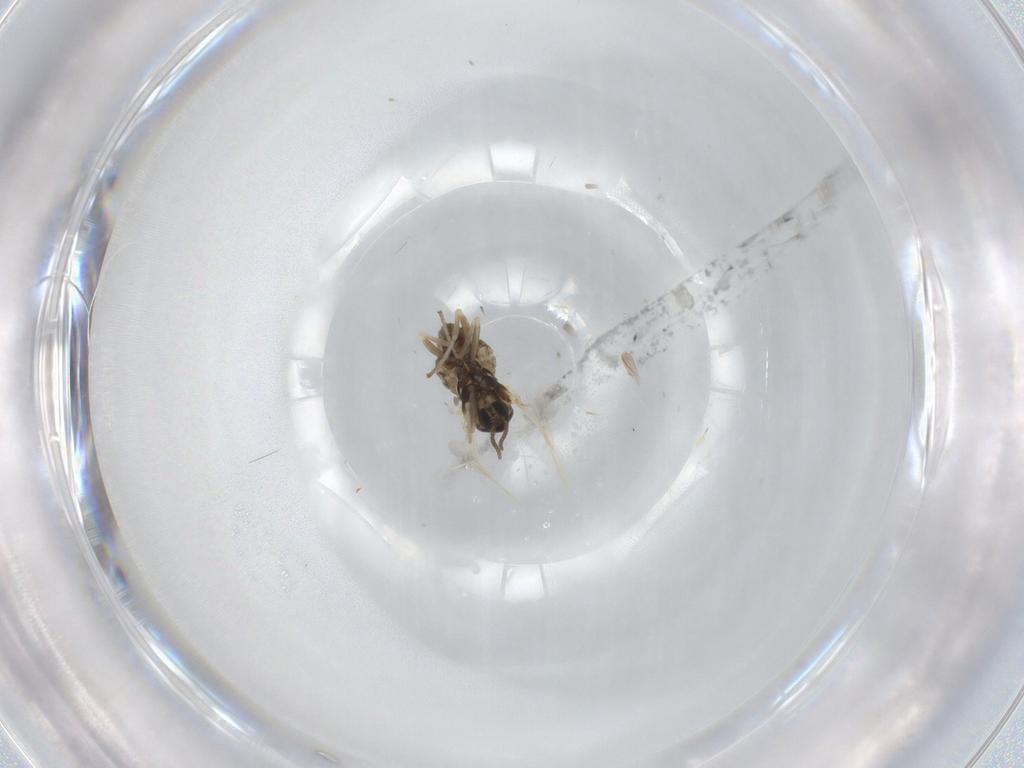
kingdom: Animalia
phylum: Arthropoda
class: Insecta
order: Diptera
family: Cecidomyiidae
